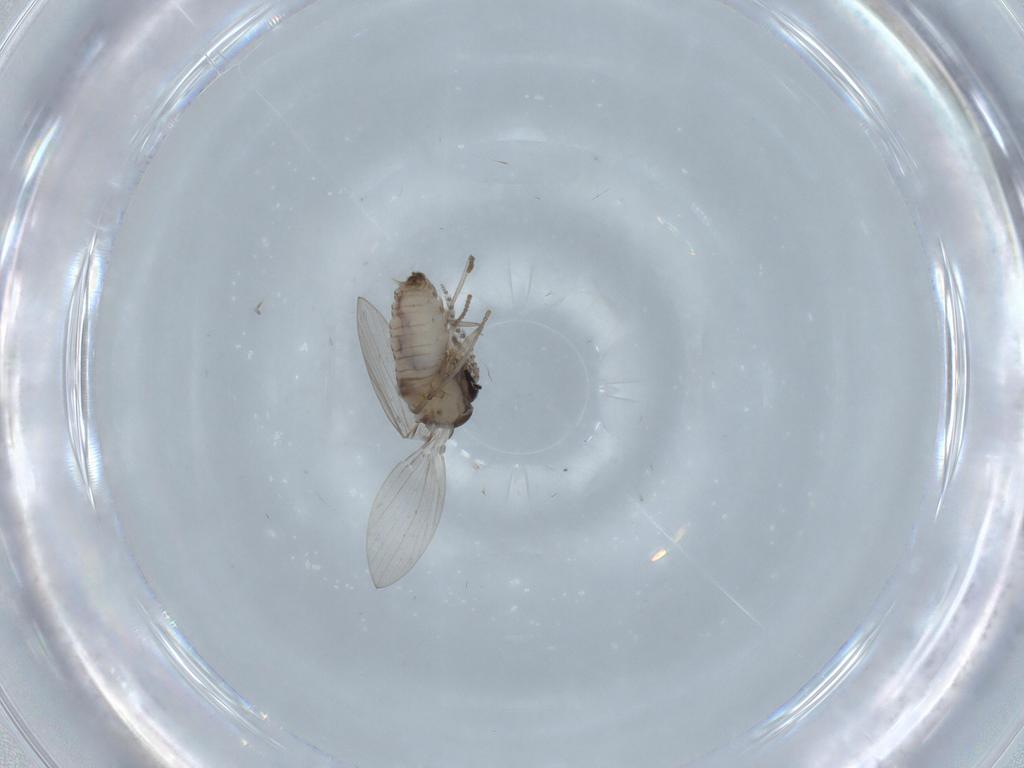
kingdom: Animalia
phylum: Arthropoda
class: Insecta
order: Diptera
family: Psychodidae
